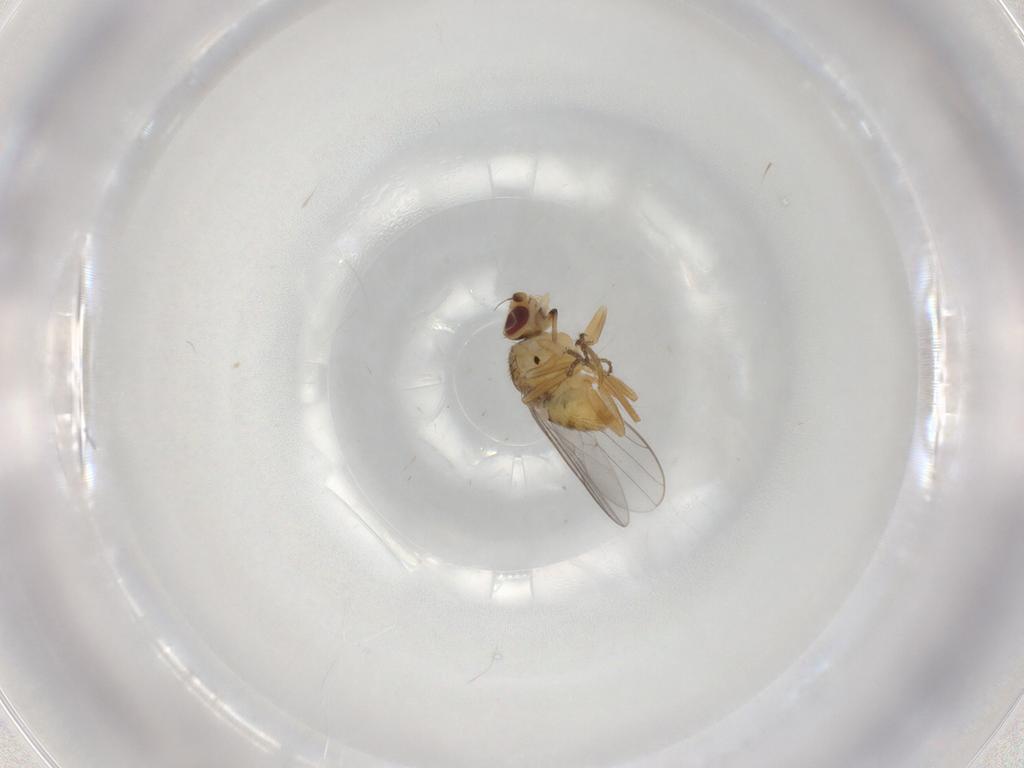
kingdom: Animalia
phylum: Arthropoda
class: Insecta
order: Diptera
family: Chloropidae
